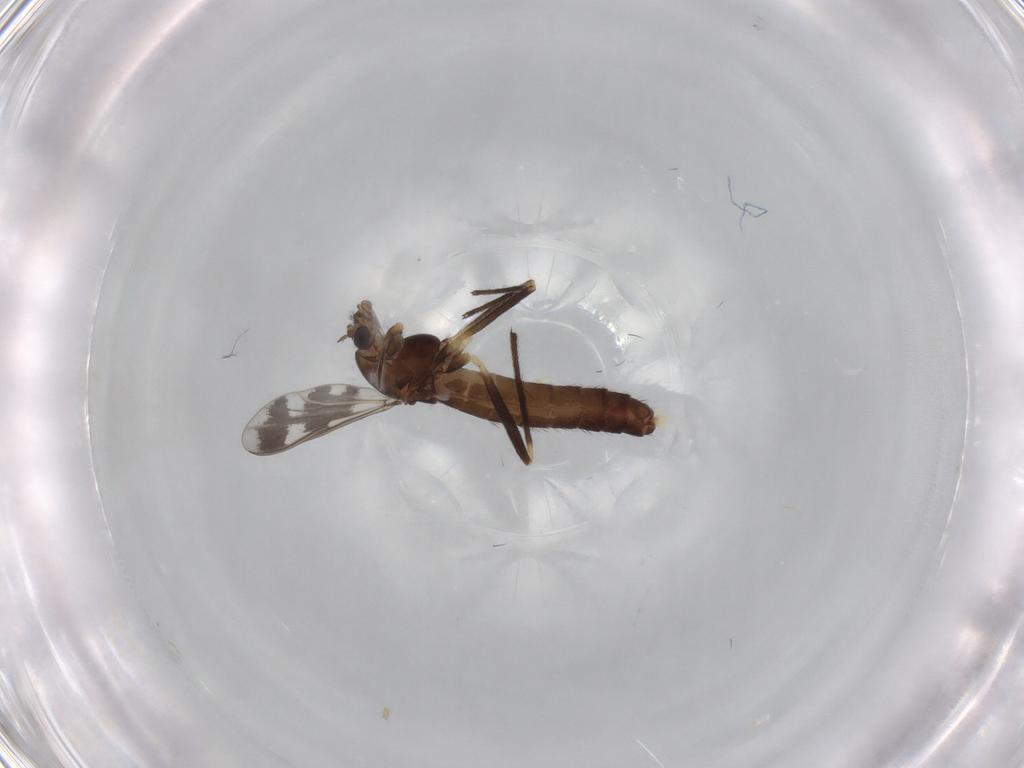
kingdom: Animalia
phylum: Arthropoda
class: Insecta
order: Diptera
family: Chironomidae
